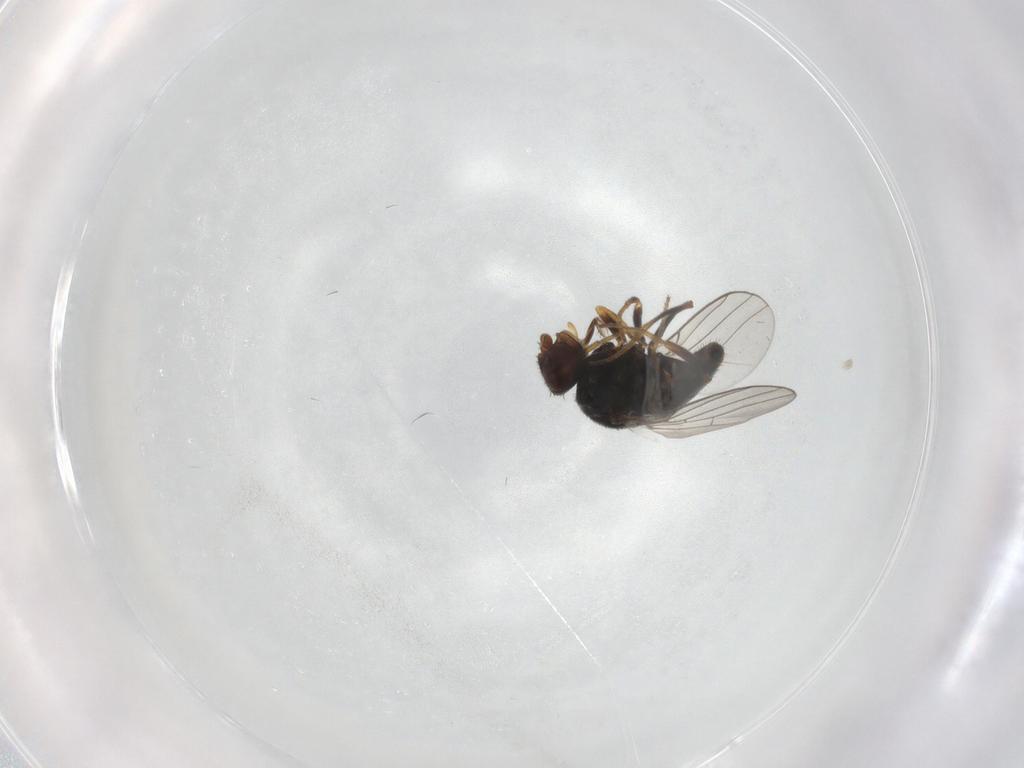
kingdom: Animalia
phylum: Arthropoda
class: Insecta
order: Diptera
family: Chloropidae
